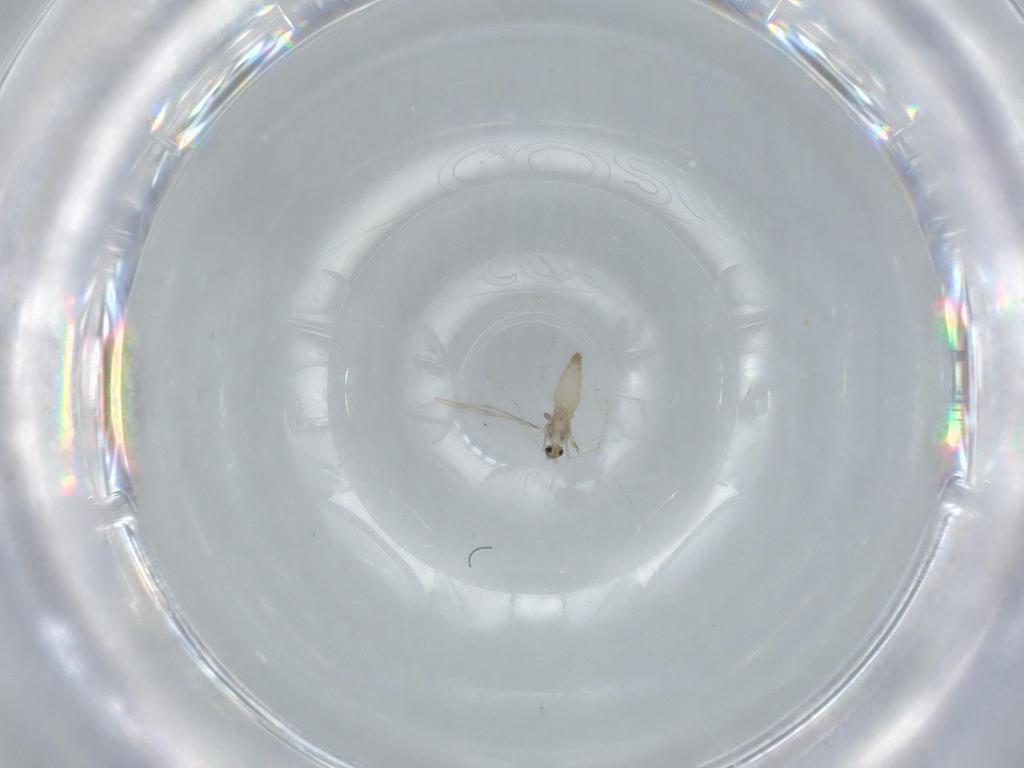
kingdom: Animalia
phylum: Arthropoda
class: Insecta
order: Diptera
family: Cecidomyiidae
